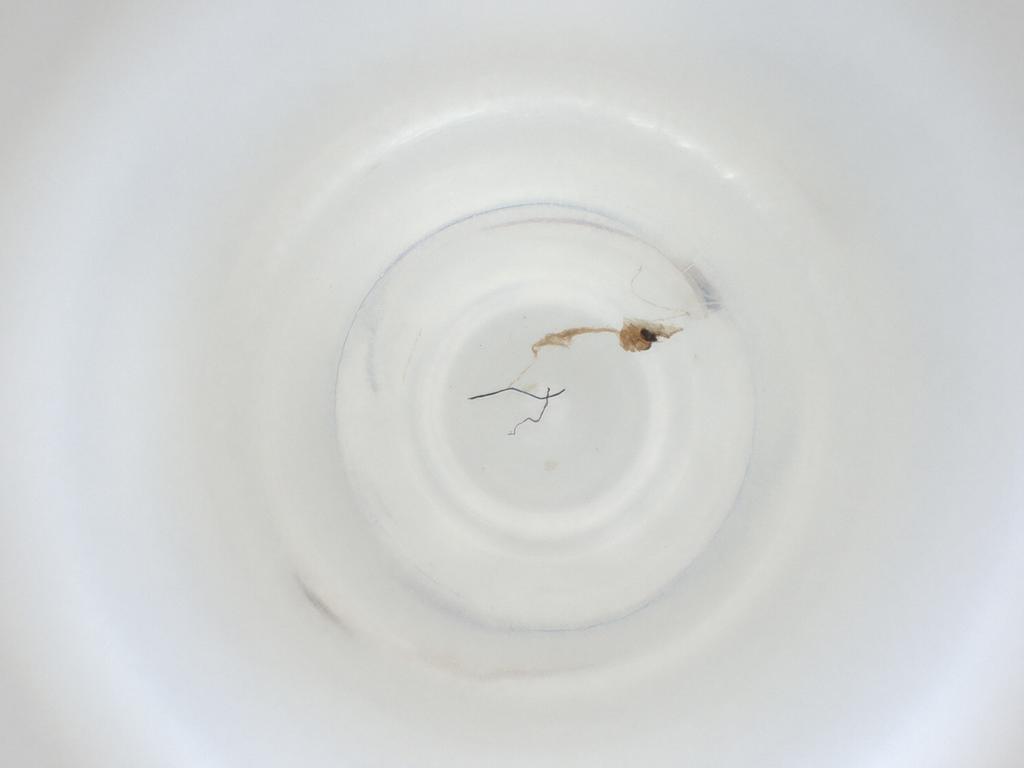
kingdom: Animalia
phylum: Arthropoda
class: Insecta
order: Diptera
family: Cecidomyiidae
